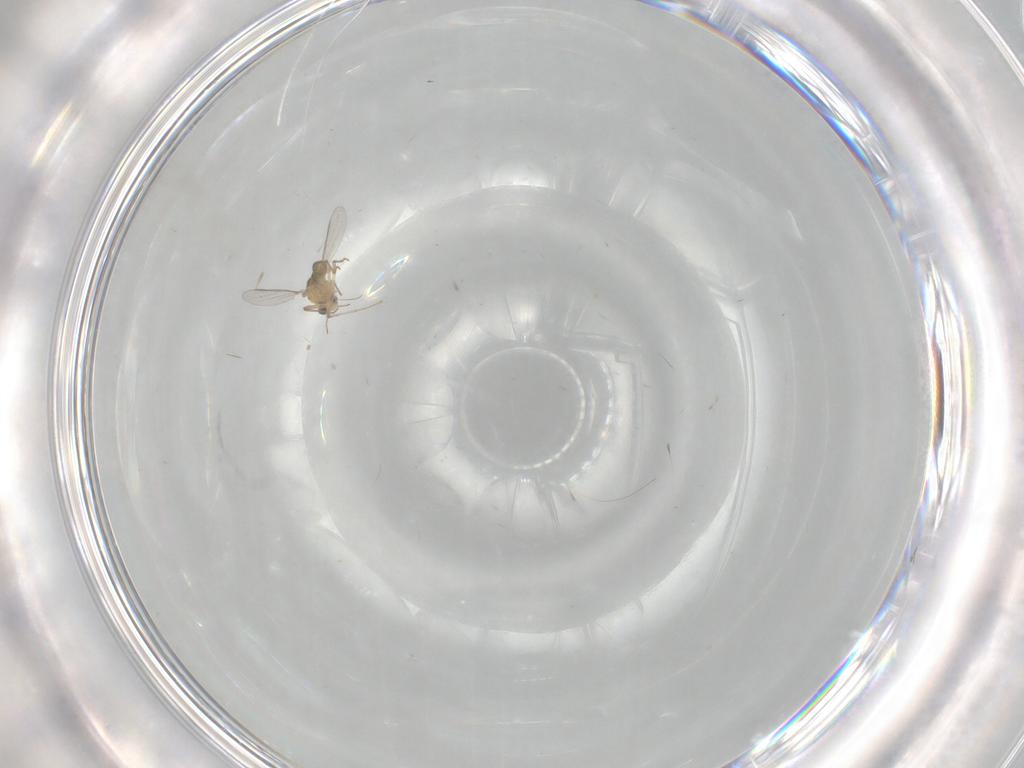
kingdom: Animalia
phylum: Arthropoda
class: Insecta
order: Diptera
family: Chironomidae
